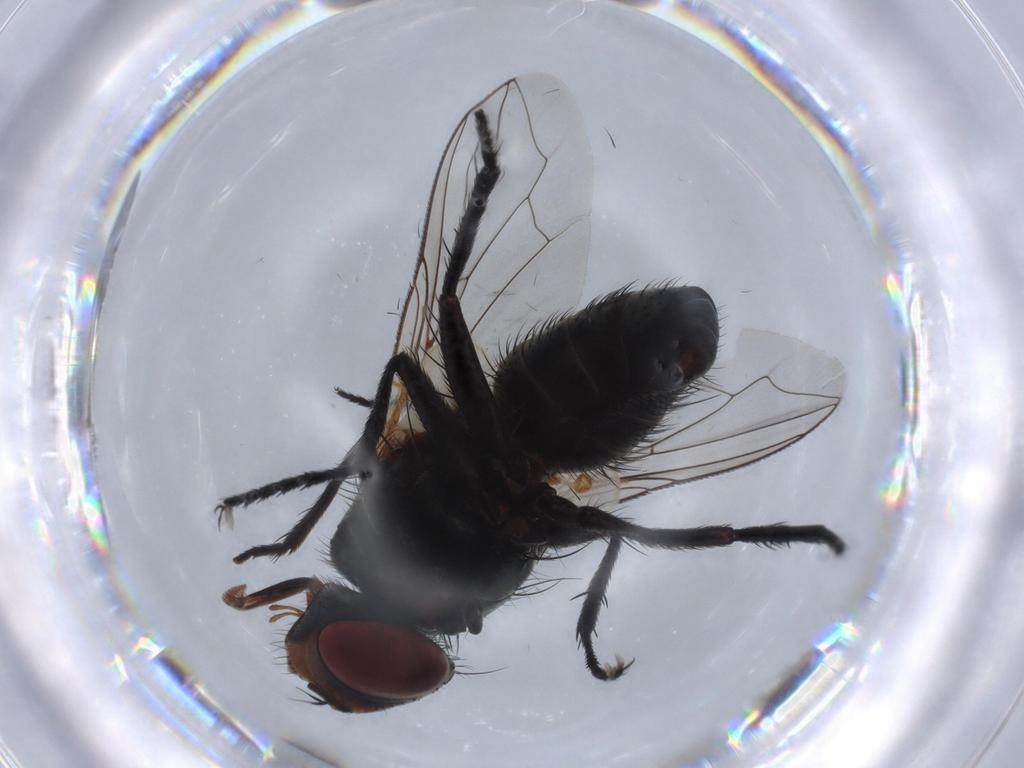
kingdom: Animalia
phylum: Arthropoda
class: Insecta
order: Diptera
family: Sarcophagidae
